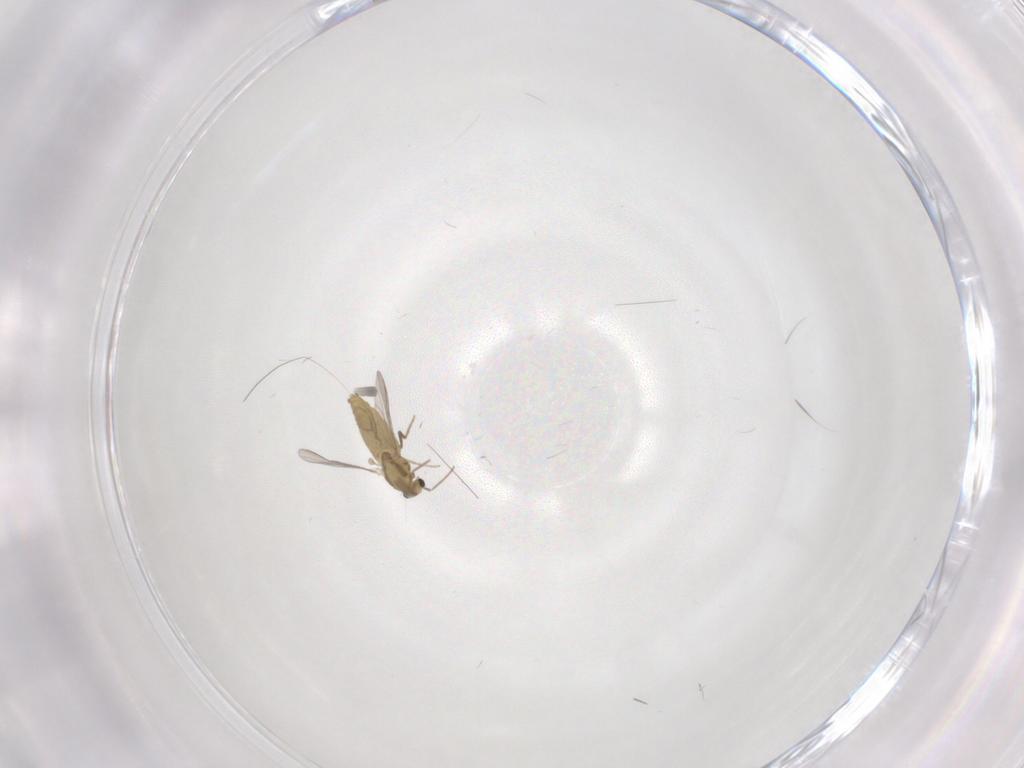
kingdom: Animalia
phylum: Arthropoda
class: Insecta
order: Diptera
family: Chironomidae
